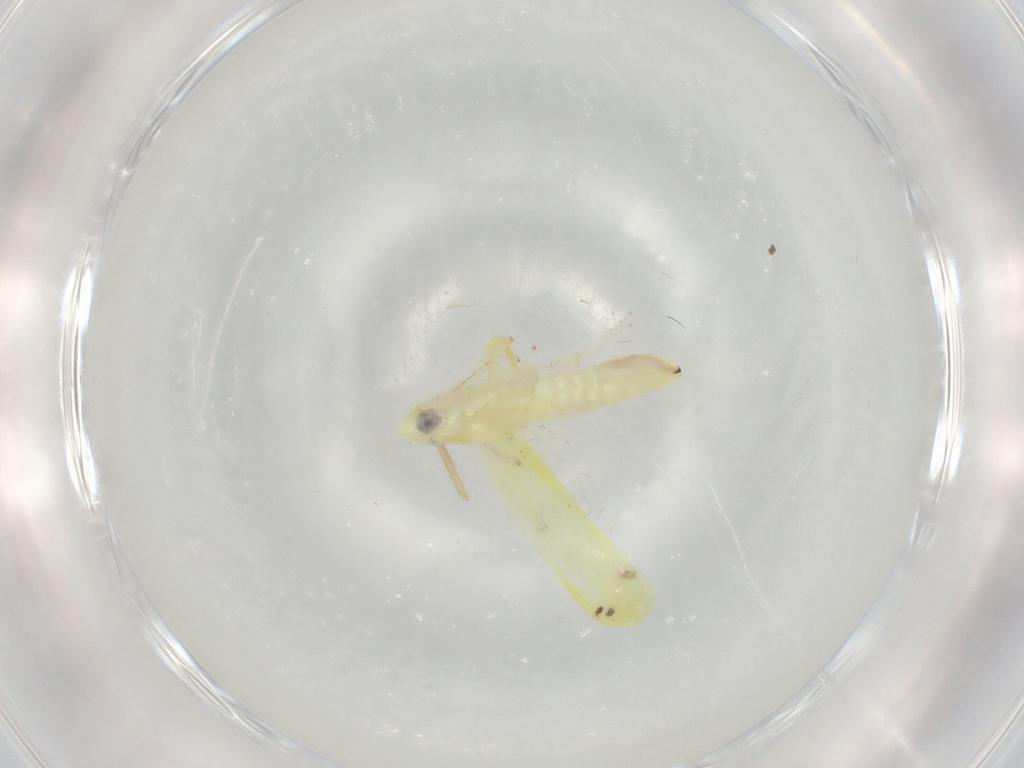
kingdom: Animalia
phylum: Arthropoda
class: Insecta
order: Hemiptera
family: Cicadellidae
